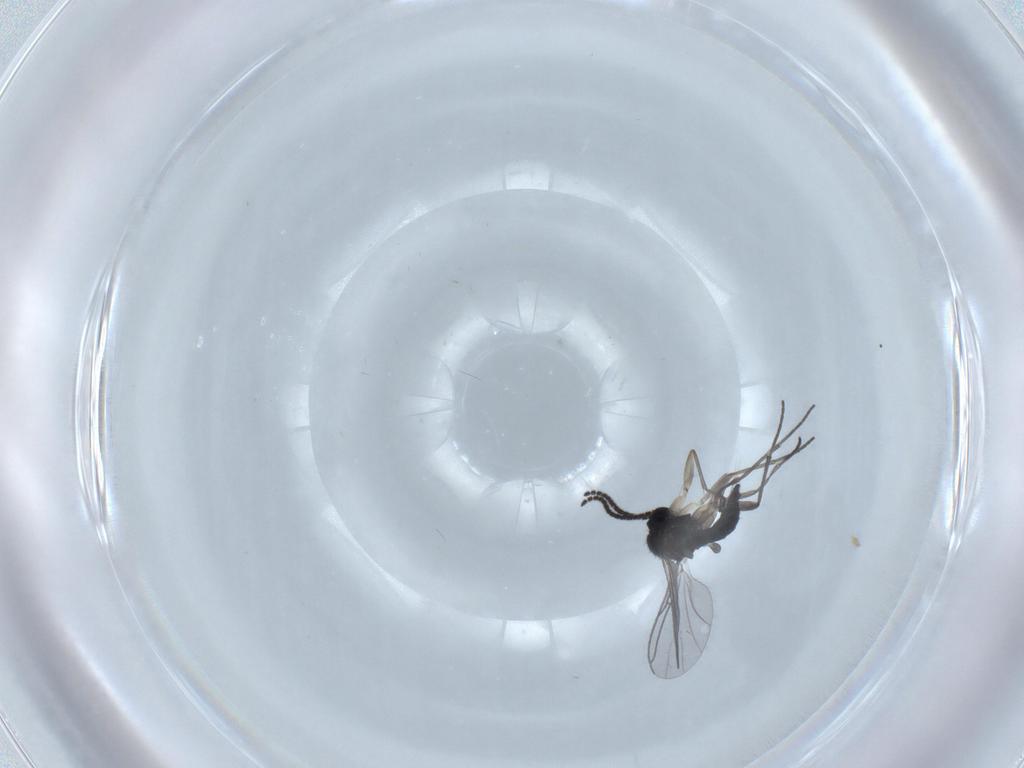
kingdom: Animalia
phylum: Arthropoda
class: Insecta
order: Diptera
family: Sciaridae
